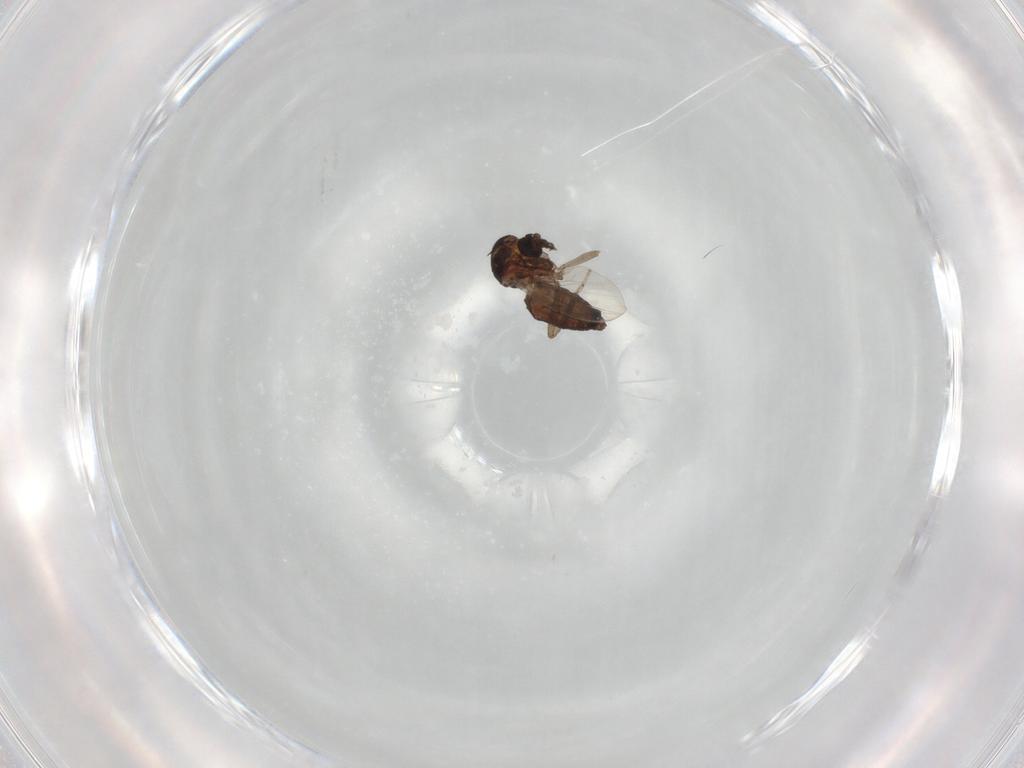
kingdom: Animalia
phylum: Arthropoda
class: Insecta
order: Diptera
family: Ceratopogonidae
